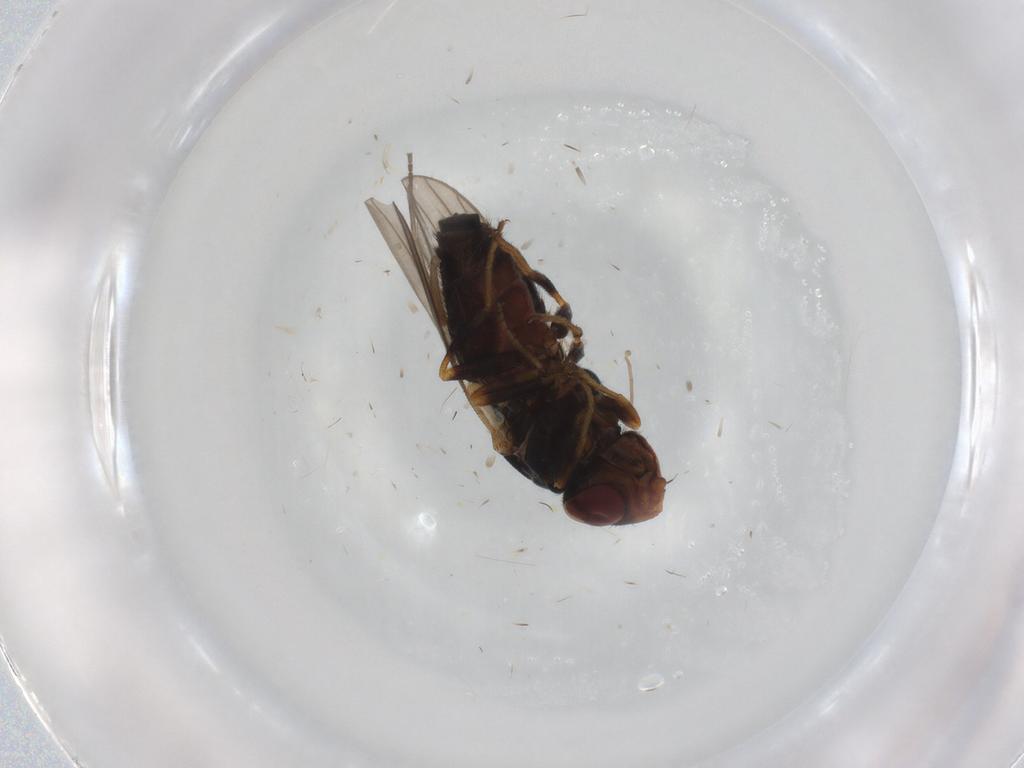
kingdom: Animalia
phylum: Arthropoda
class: Insecta
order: Diptera
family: Chloropidae
